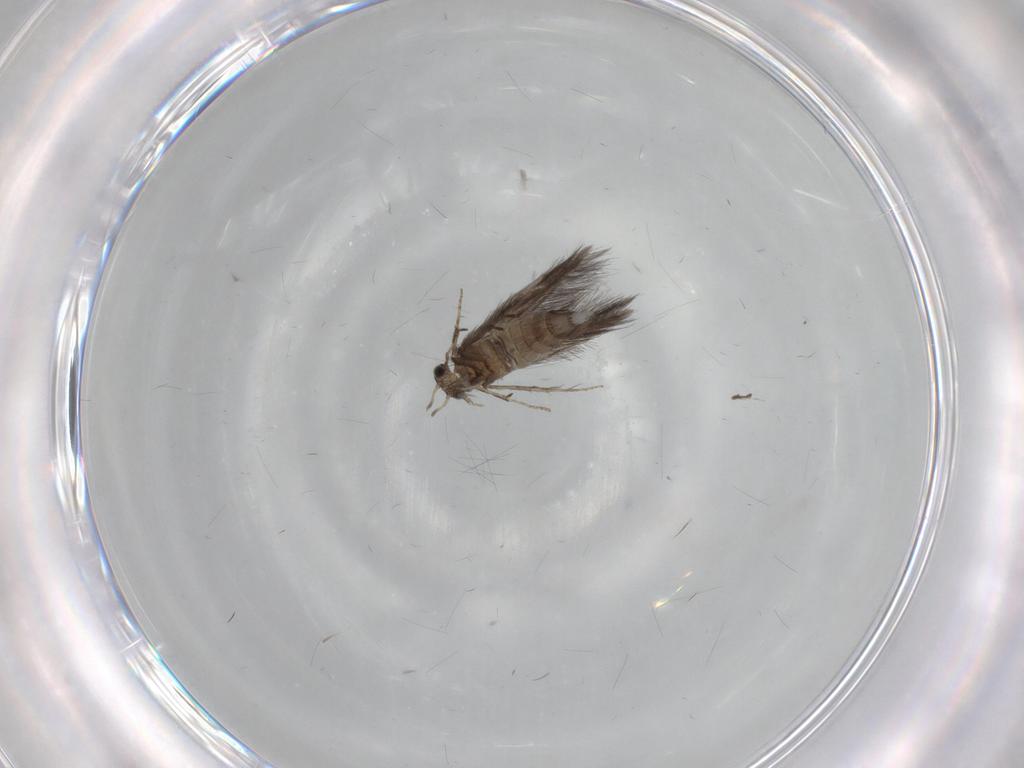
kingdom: Animalia
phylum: Arthropoda
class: Insecta
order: Trichoptera
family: Hydroptilidae
